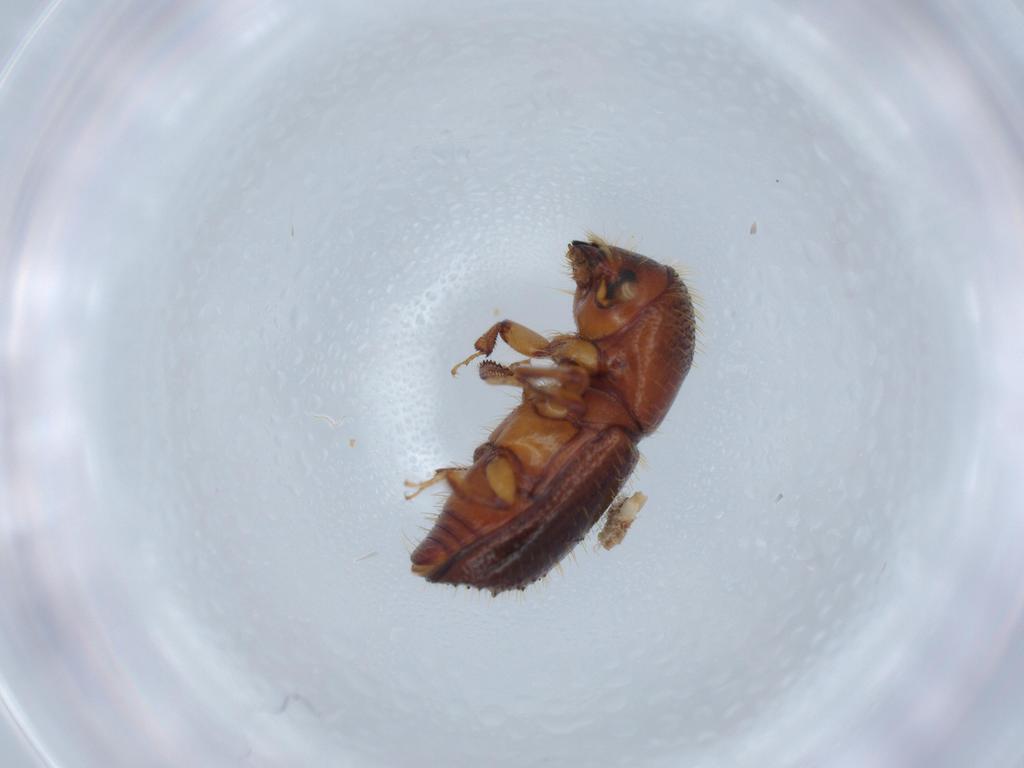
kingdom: Animalia
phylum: Arthropoda
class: Insecta
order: Coleoptera
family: Curculionidae
